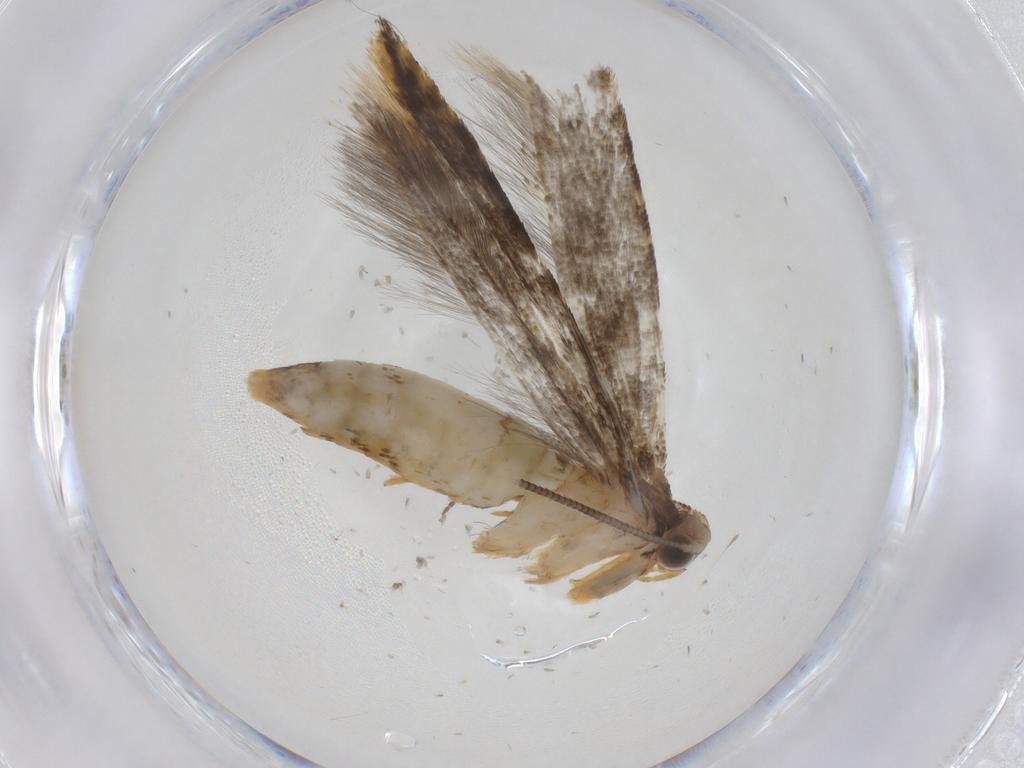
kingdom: Animalia
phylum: Arthropoda
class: Insecta
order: Lepidoptera
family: Tineidae
